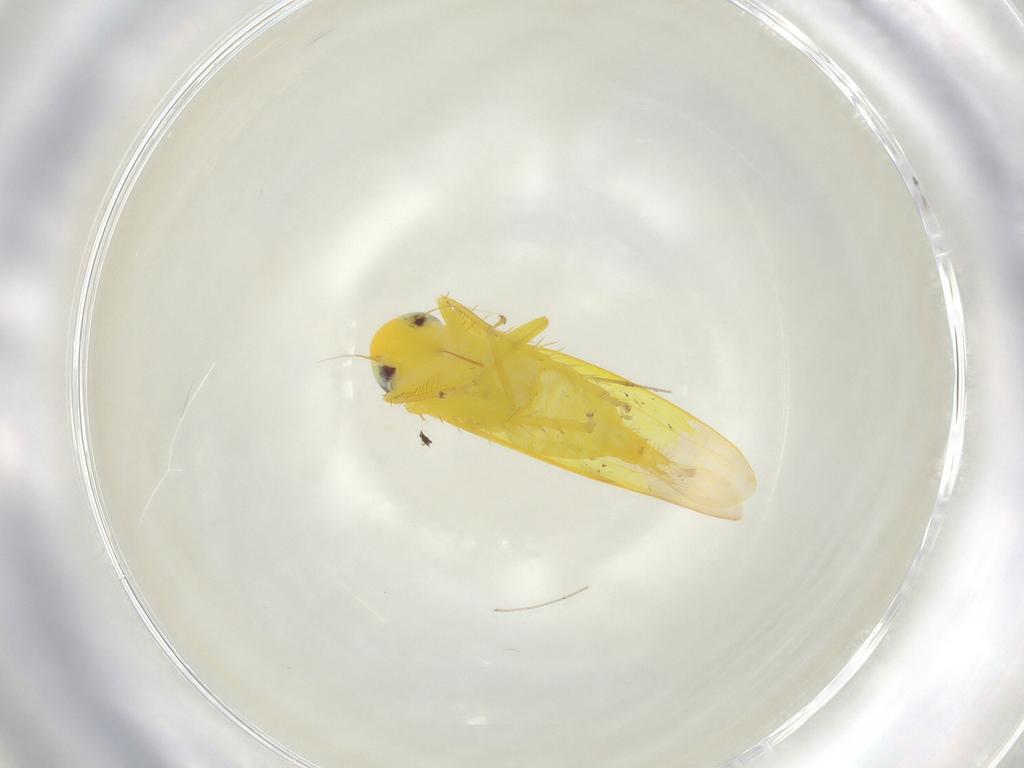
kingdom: Animalia
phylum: Arthropoda
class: Insecta
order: Hemiptera
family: Cicadellidae
